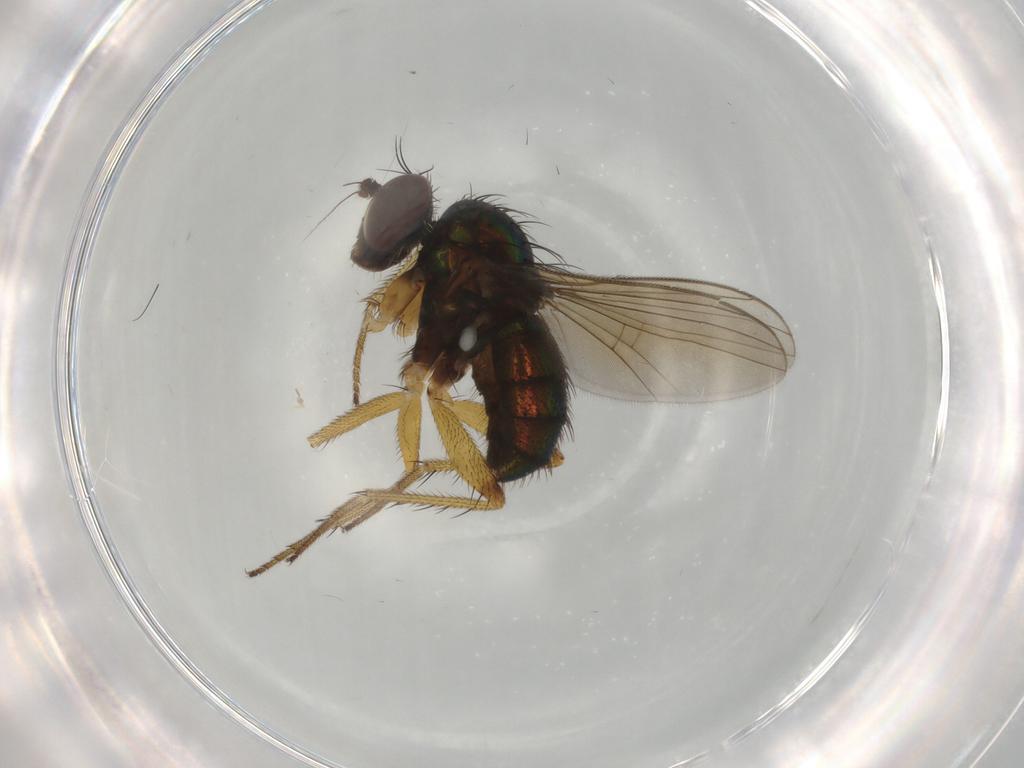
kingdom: Animalia
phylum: Arthropoda
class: Insecta
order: Diptera
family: Dolichopodidae
